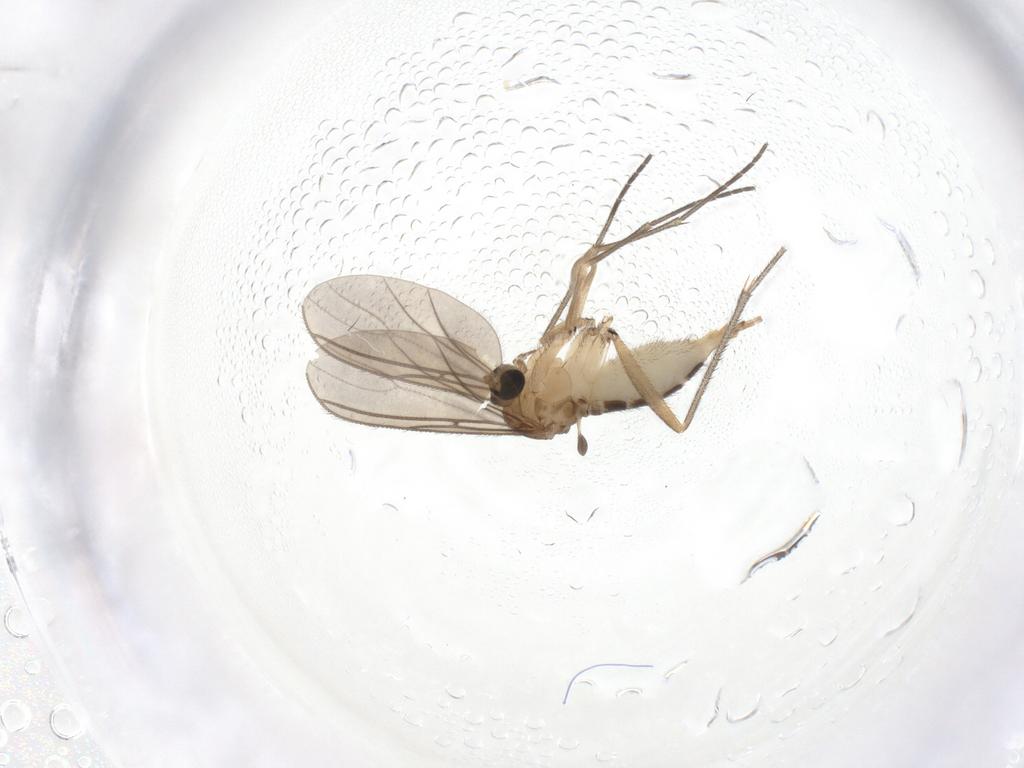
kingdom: Animalia
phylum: Arthropoda
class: Insecta
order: Diptera
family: Sciaridae
